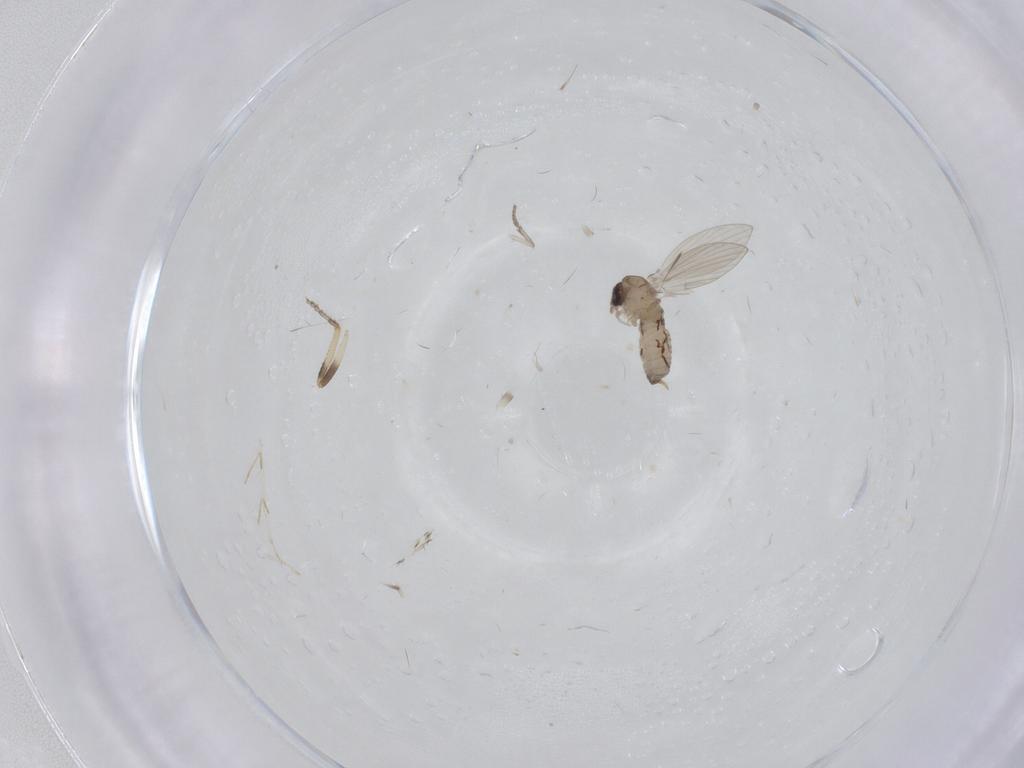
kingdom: Animalia
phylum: Arthropoda
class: Insecta
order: Diptera
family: Psychodidae
